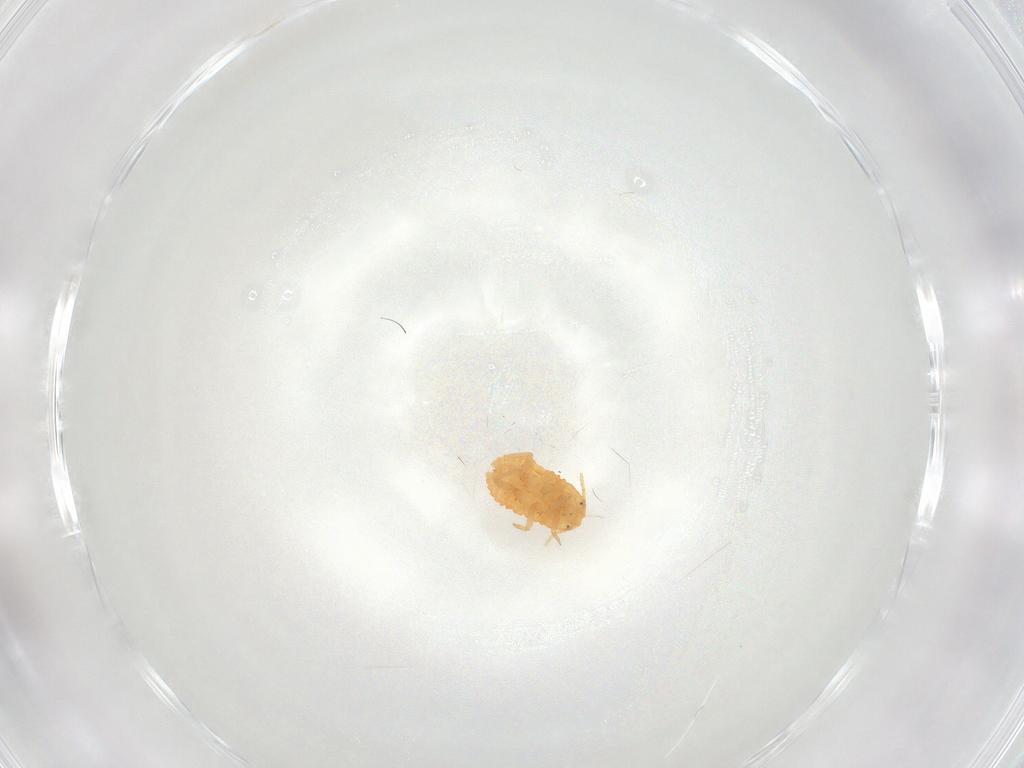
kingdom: Animalia
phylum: Arthropoda
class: Insecta
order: Hemiptera
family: Pseudococcidae
